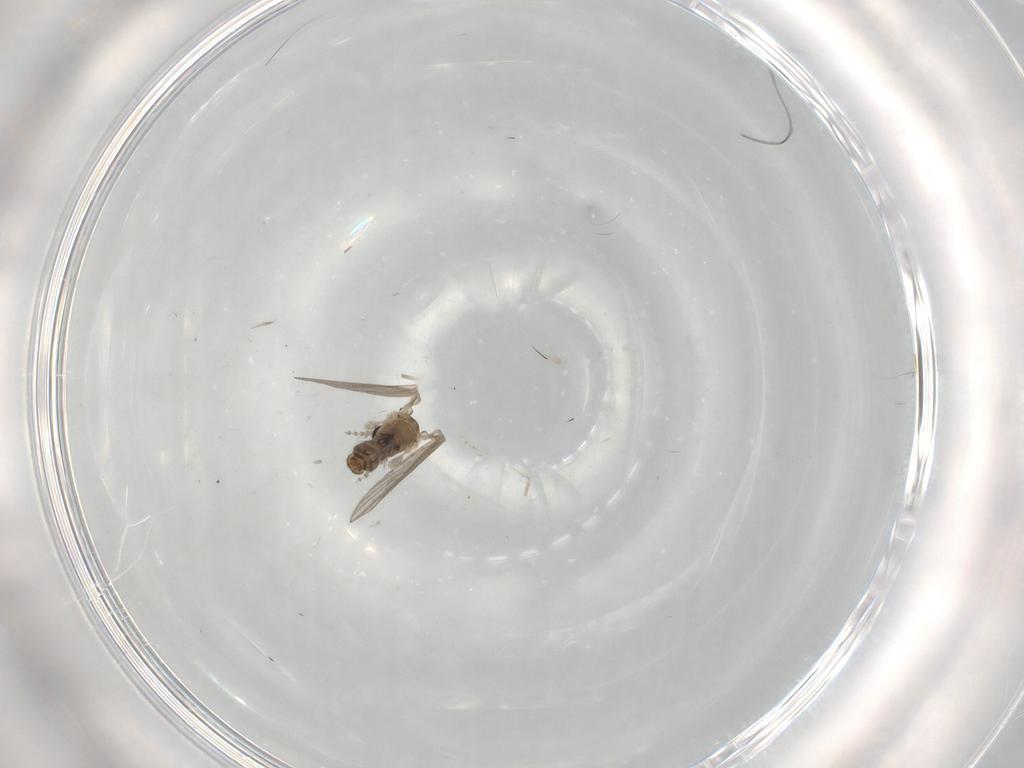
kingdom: Animalia
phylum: Arthropoda
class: Insecta
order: Diptera
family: Psychodidae
